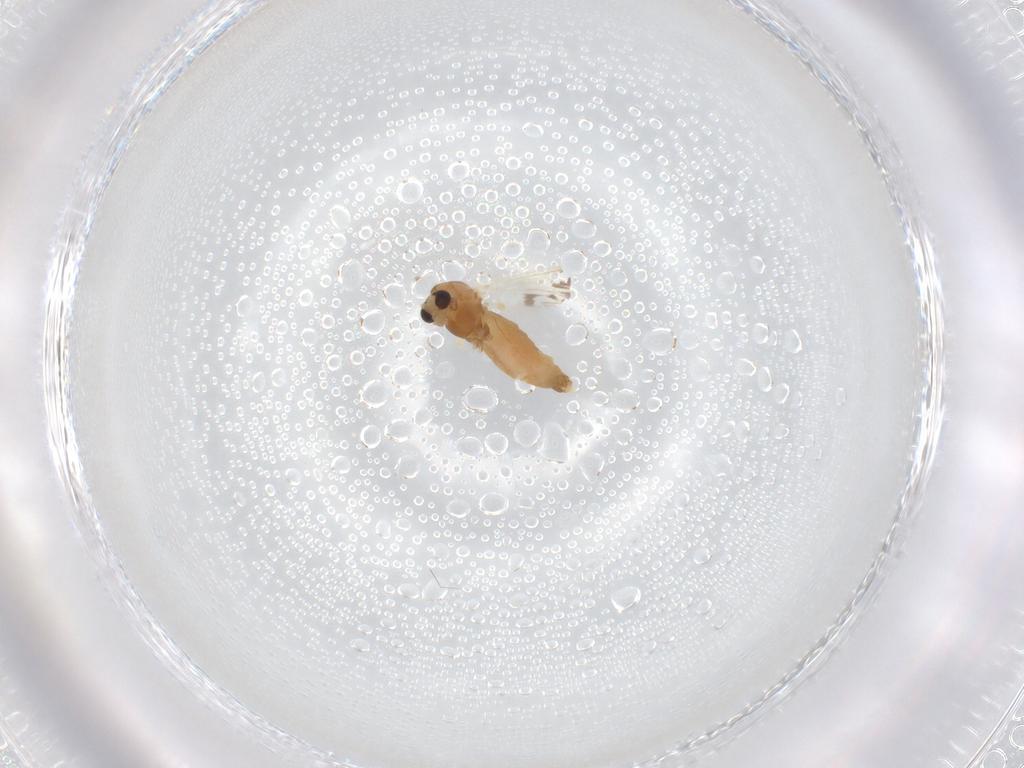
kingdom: Animalia
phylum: Arthropoda
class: Insecta
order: Diptera
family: Chironomidae
